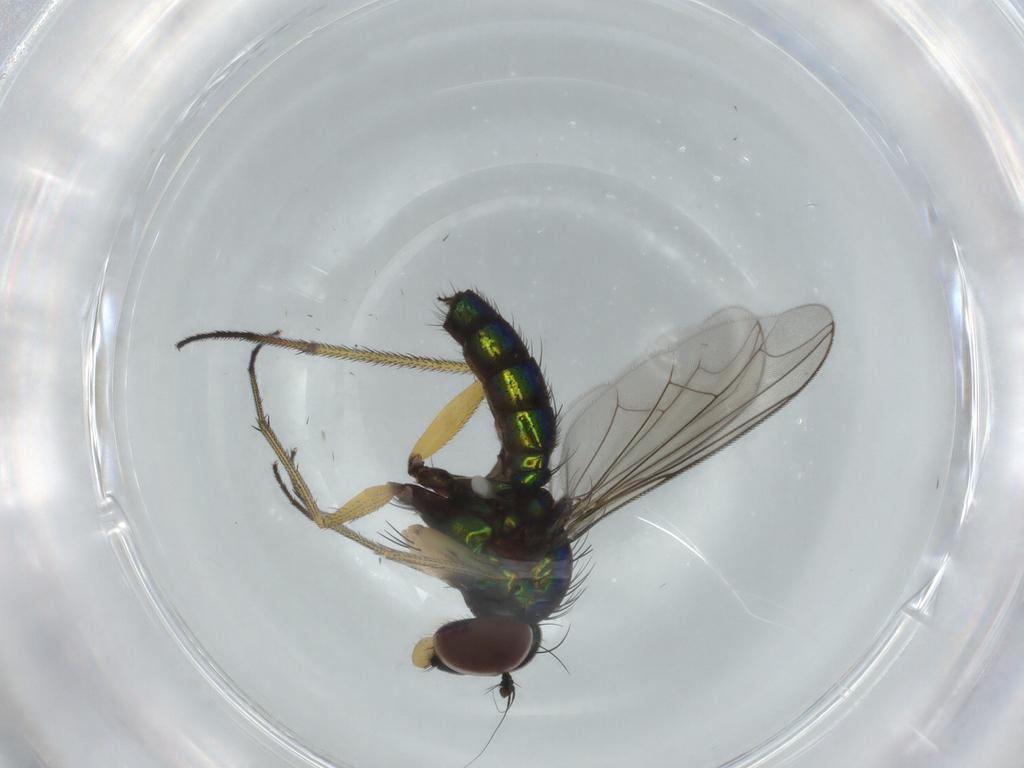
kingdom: Animalia
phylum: Arthropoda
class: Insecta
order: Diptera
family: Dolichopodidae
